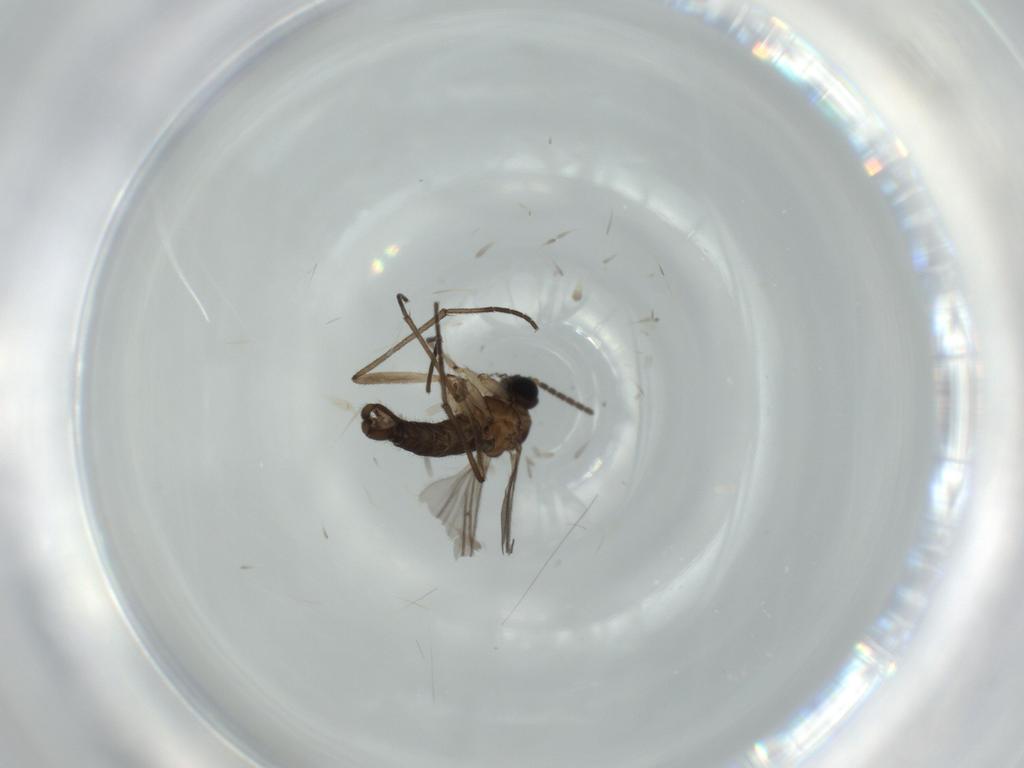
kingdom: Animalia
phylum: Arthropoda
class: Insecta
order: Diptera
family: Sciaridae
